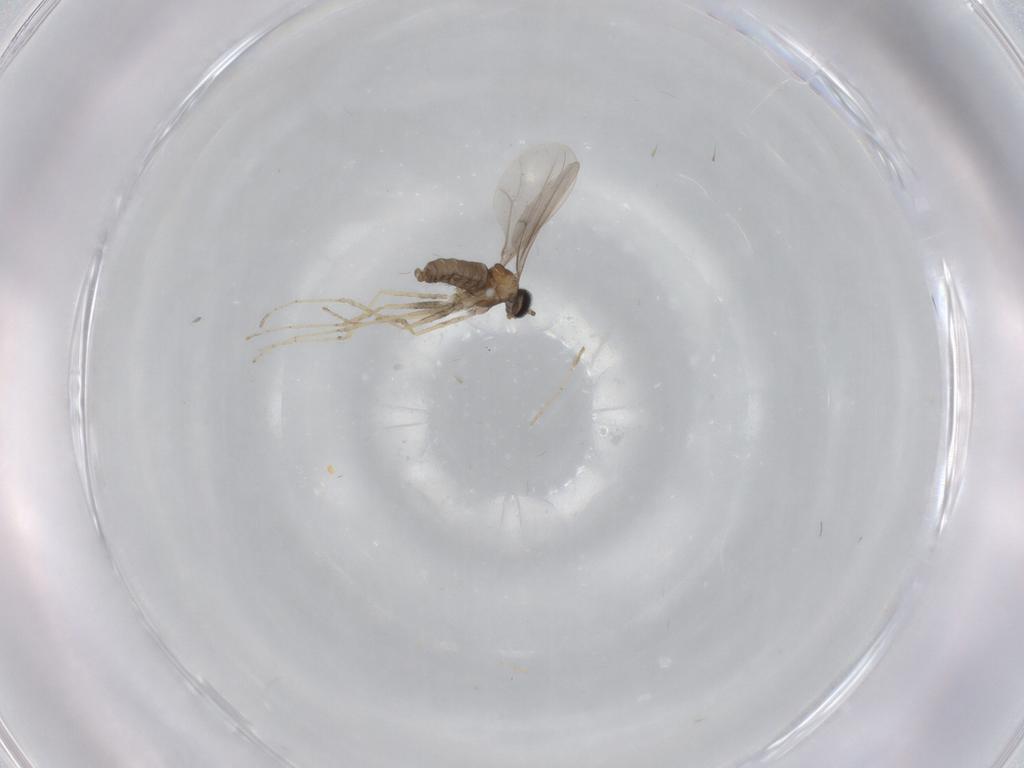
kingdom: Animalia
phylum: Arthropoda
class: Insecta
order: Diptera
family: Cecidomyiidae
